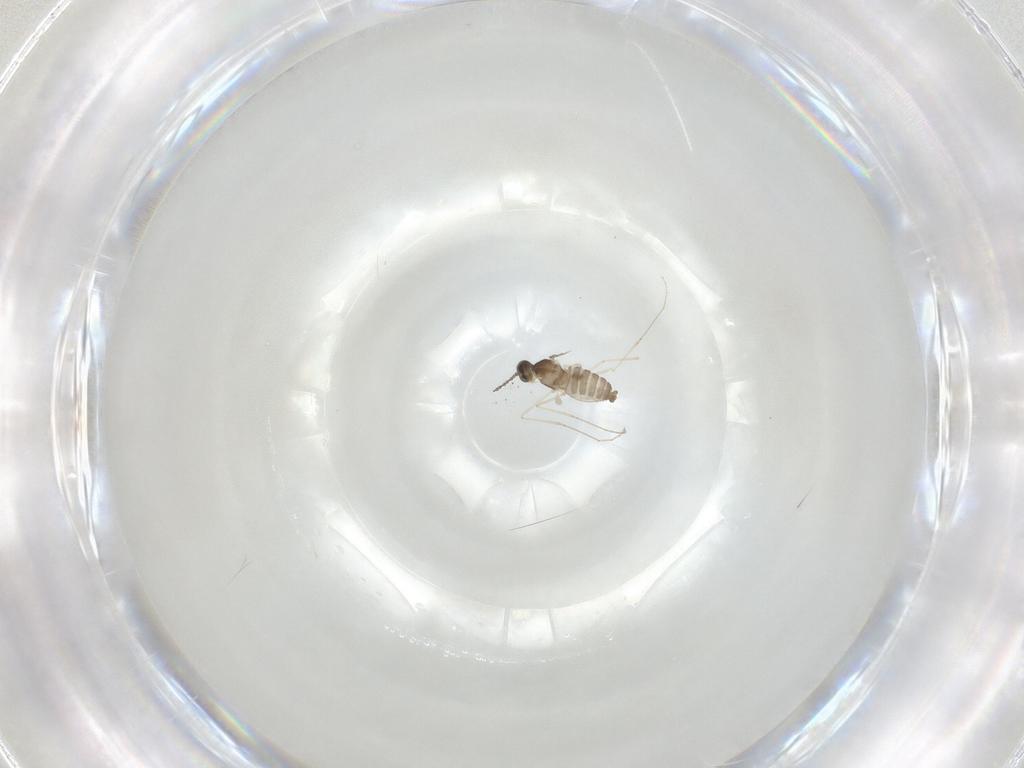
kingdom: Animalia
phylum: Arthropoda
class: Insecta
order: Diptera
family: Cecidomyiidae
